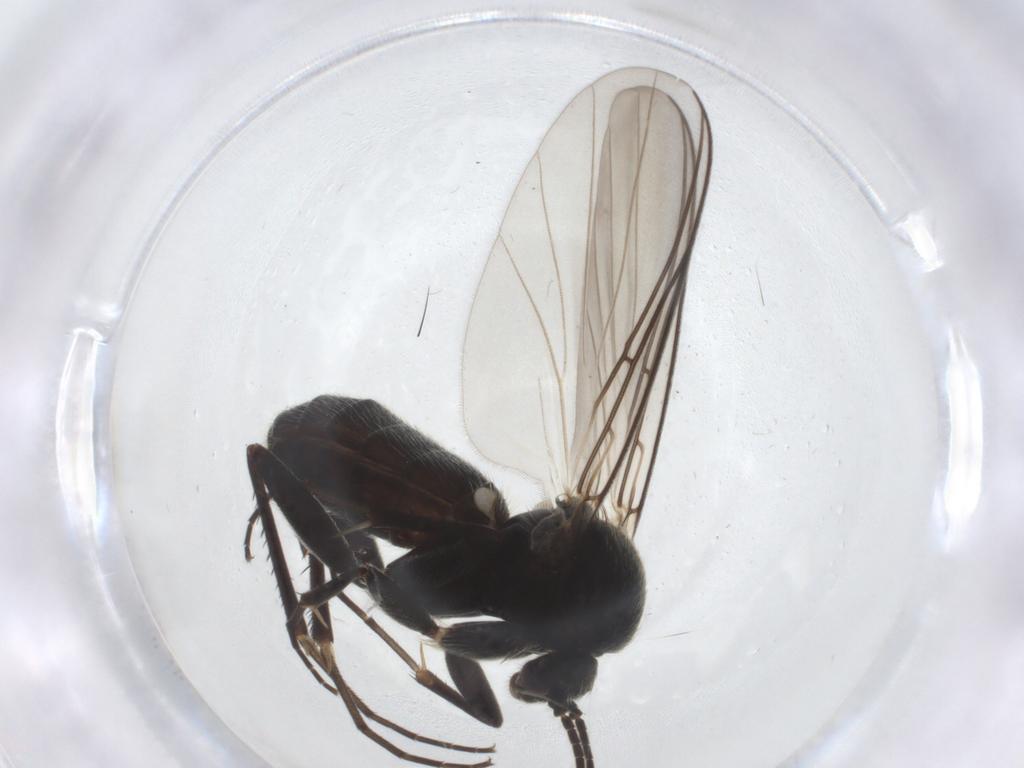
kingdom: Animalia
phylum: Arthropoda
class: Insecta
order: Diptera
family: Mycetophilidae
